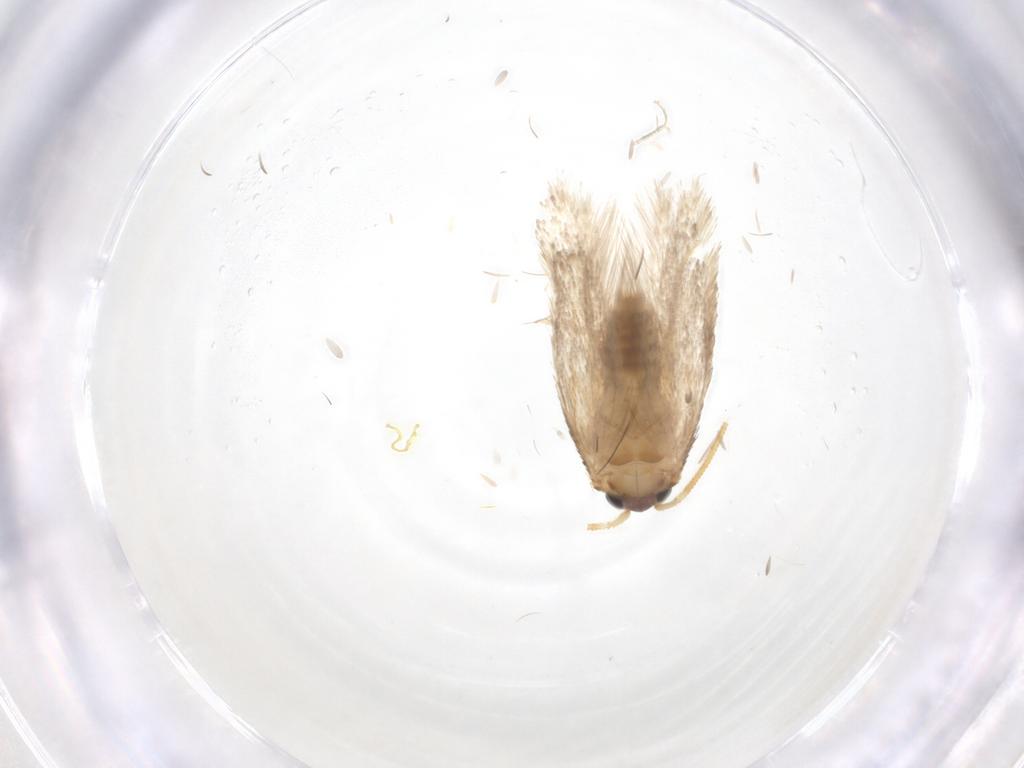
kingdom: Animalia
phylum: Arthropoda
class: Insecta
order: Lepidoptera
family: Nepticulidae
